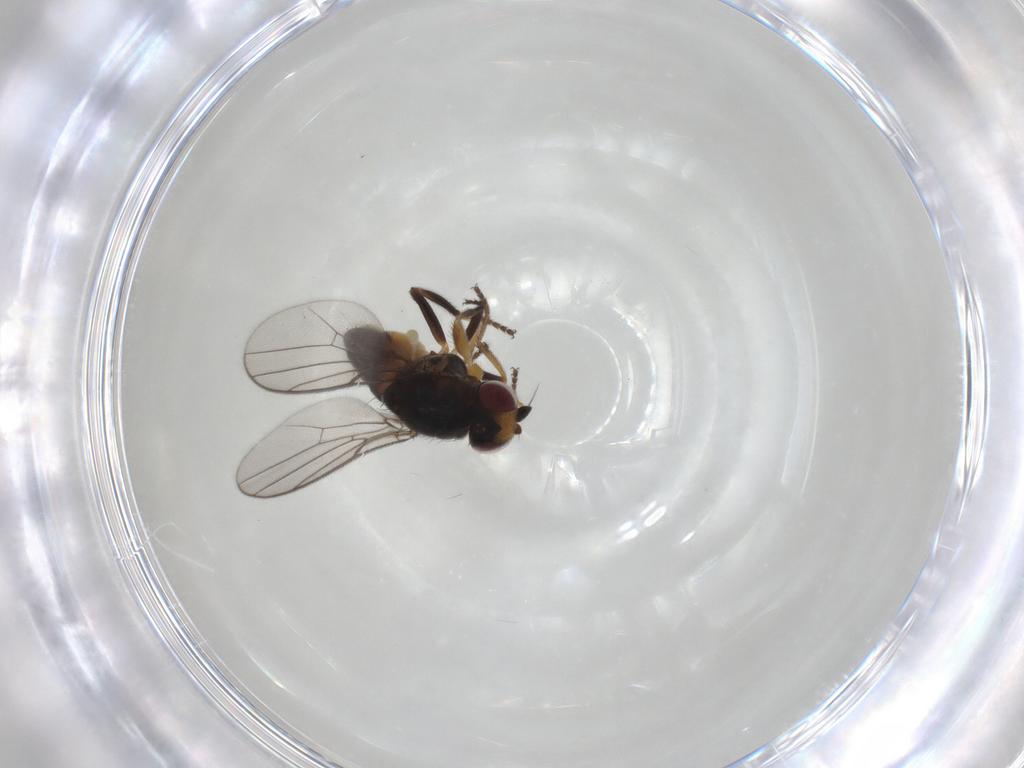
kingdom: Animalia
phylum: Arthropoda
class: Insecta
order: Diptera
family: Chloropidae
